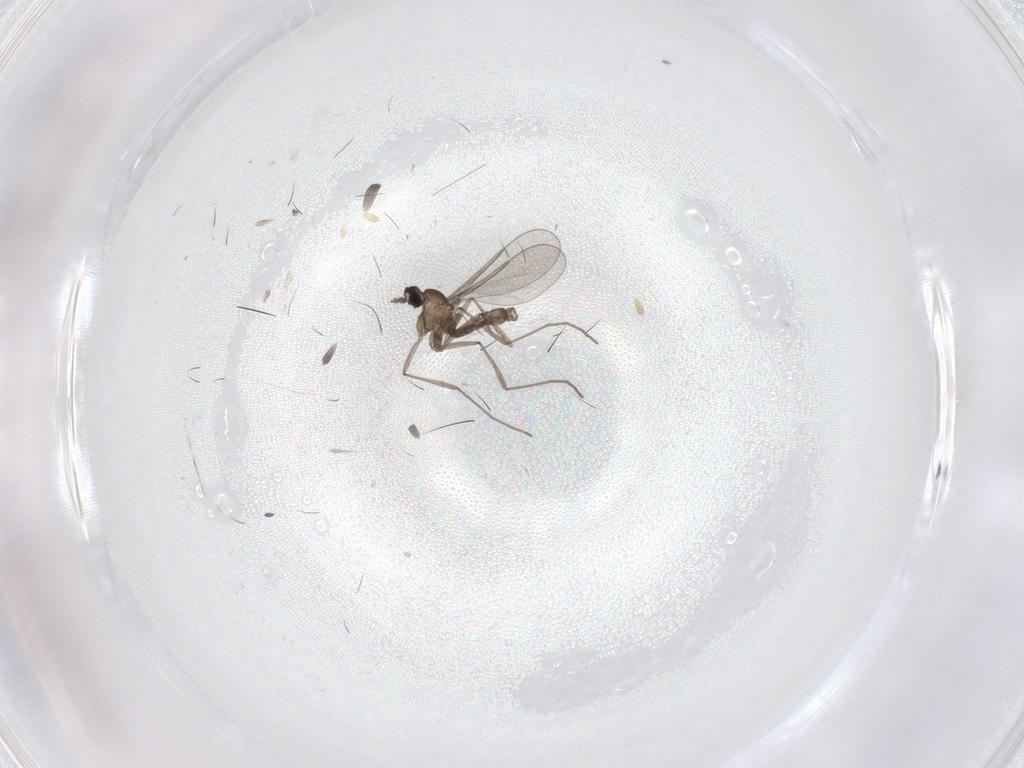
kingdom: Animalia
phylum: Arthropoda
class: Insecta
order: Diptera
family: Cecidomyiidae
